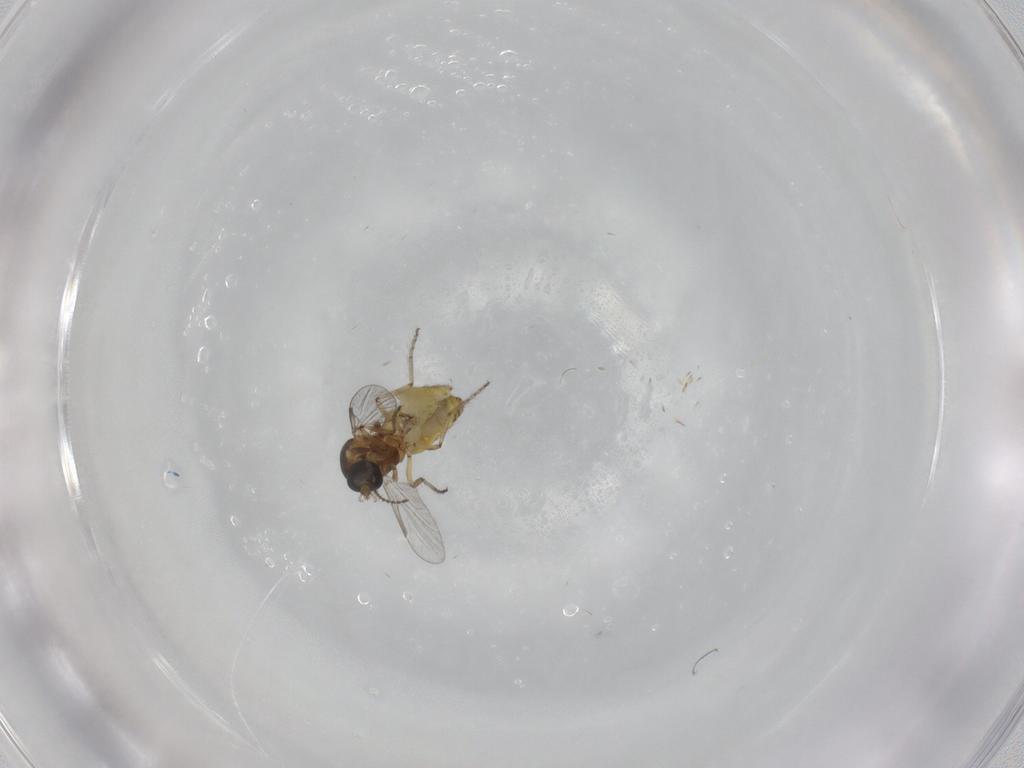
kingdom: Animalia
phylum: Arthropoda
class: Insecta
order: Diptera
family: Ceratopogonidae
